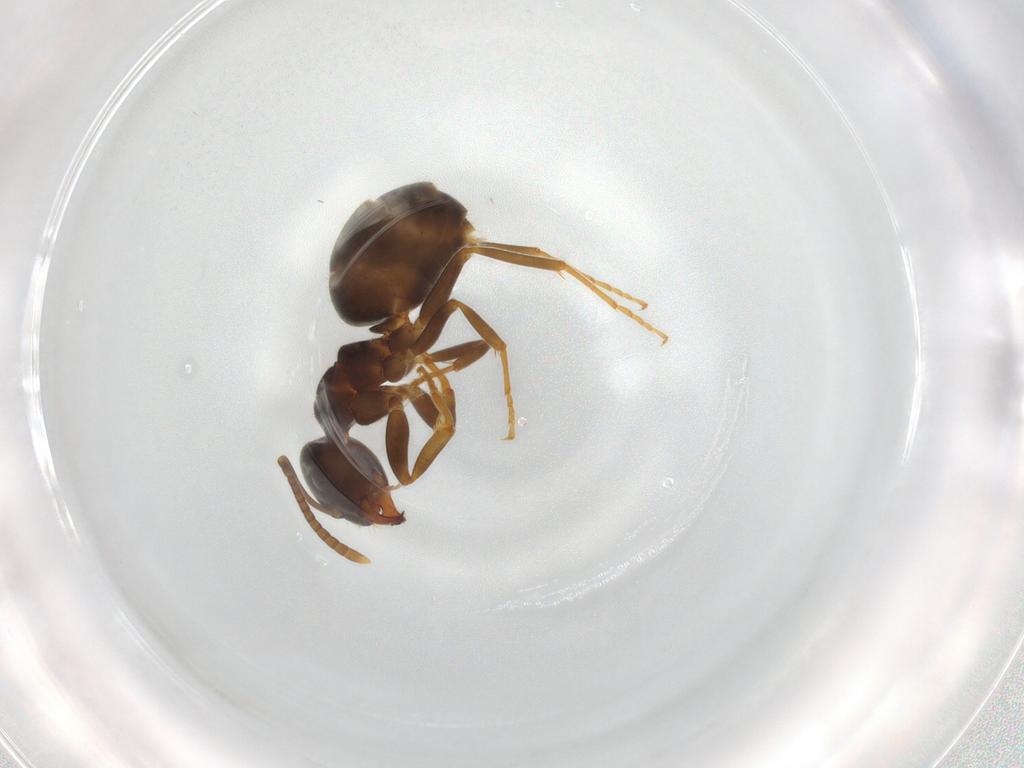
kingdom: Animalia
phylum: Arthropoda
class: Insecta
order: Hymenoptera
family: Formicidae
